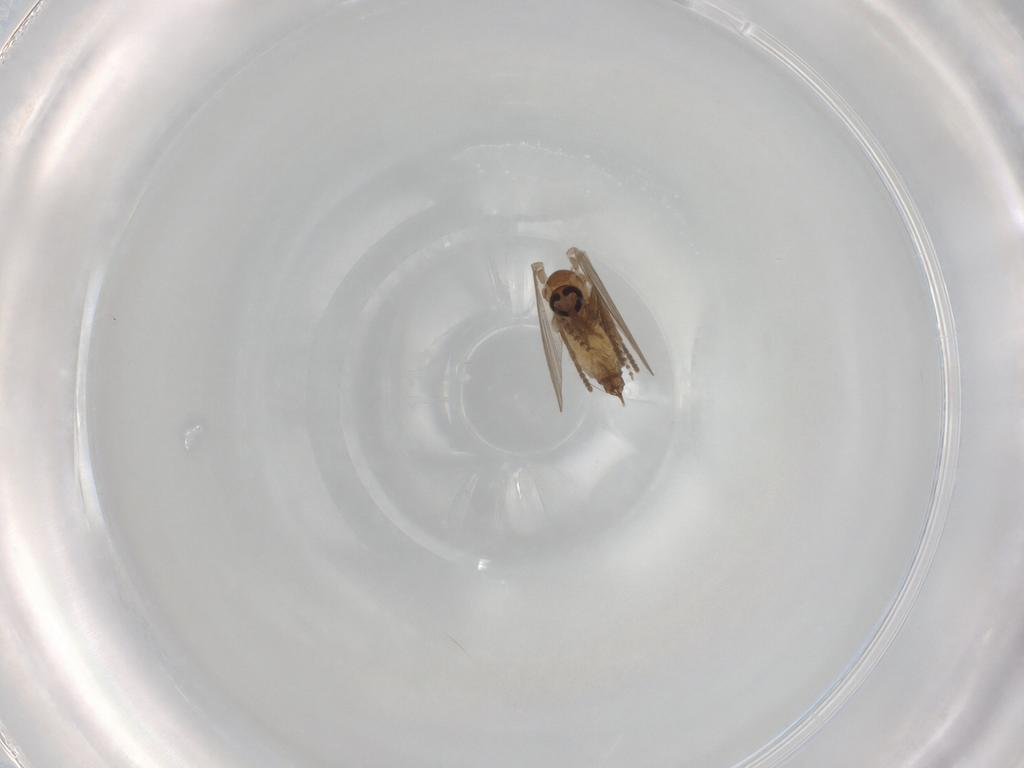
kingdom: Animalia
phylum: Arthropoda
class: Insecta
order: Diptera
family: Psychodidae
